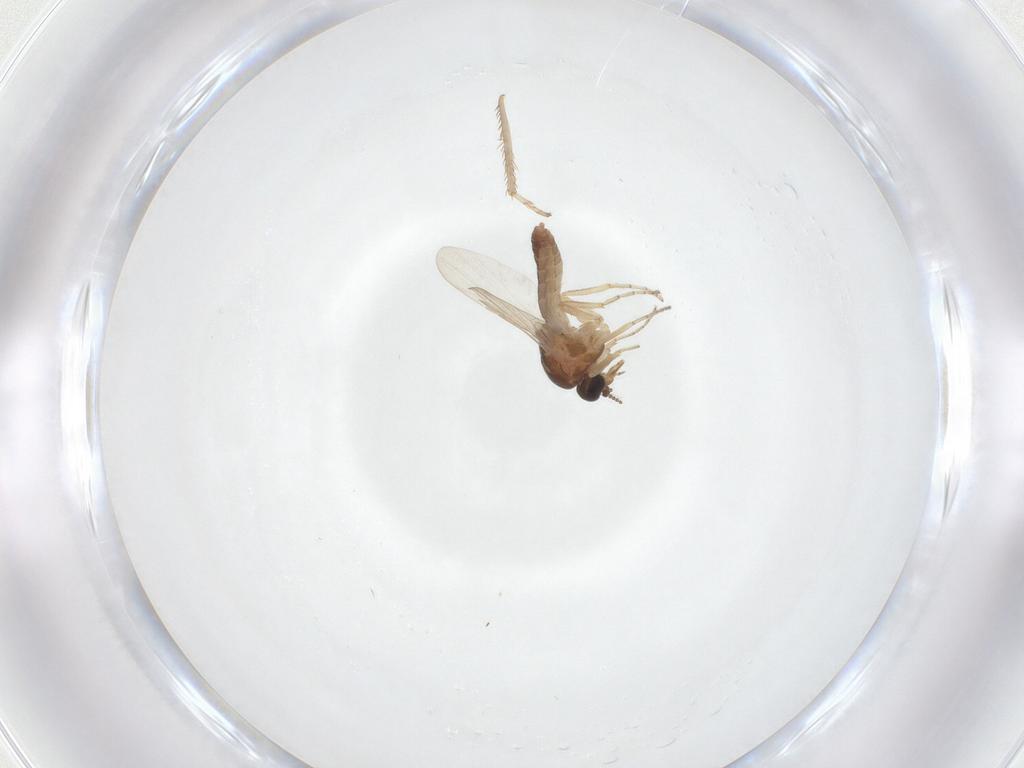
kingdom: Animalia
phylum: Arthropoda
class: Insecta
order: Diptera
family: Ceratopogonidae
